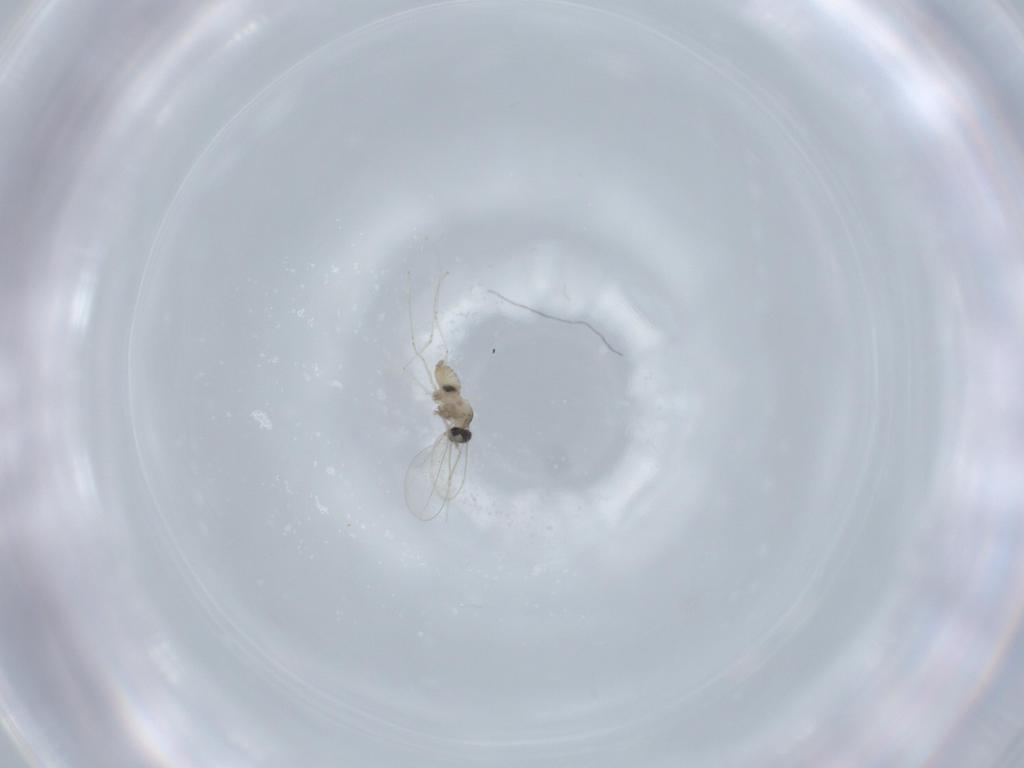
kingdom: Animalia
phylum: Arthropoda
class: Insecta
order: Diptera
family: Cecidomyiidae
